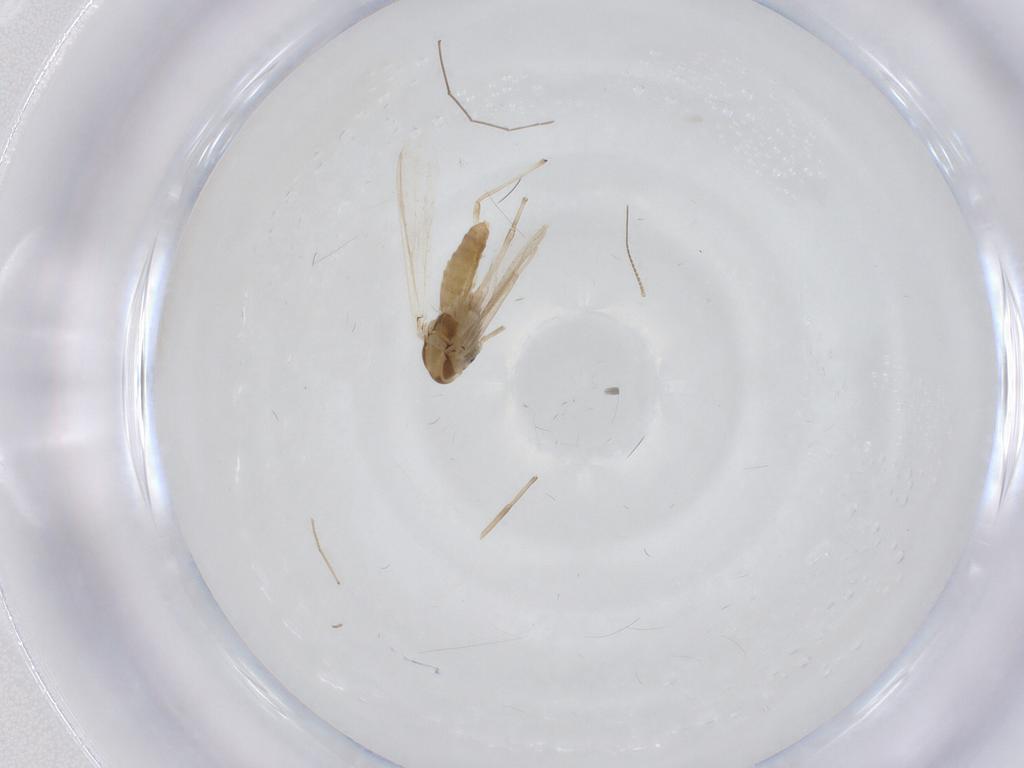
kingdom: Animalia
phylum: Arthropoda
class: Insecta
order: Diptera
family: Chironomidae
